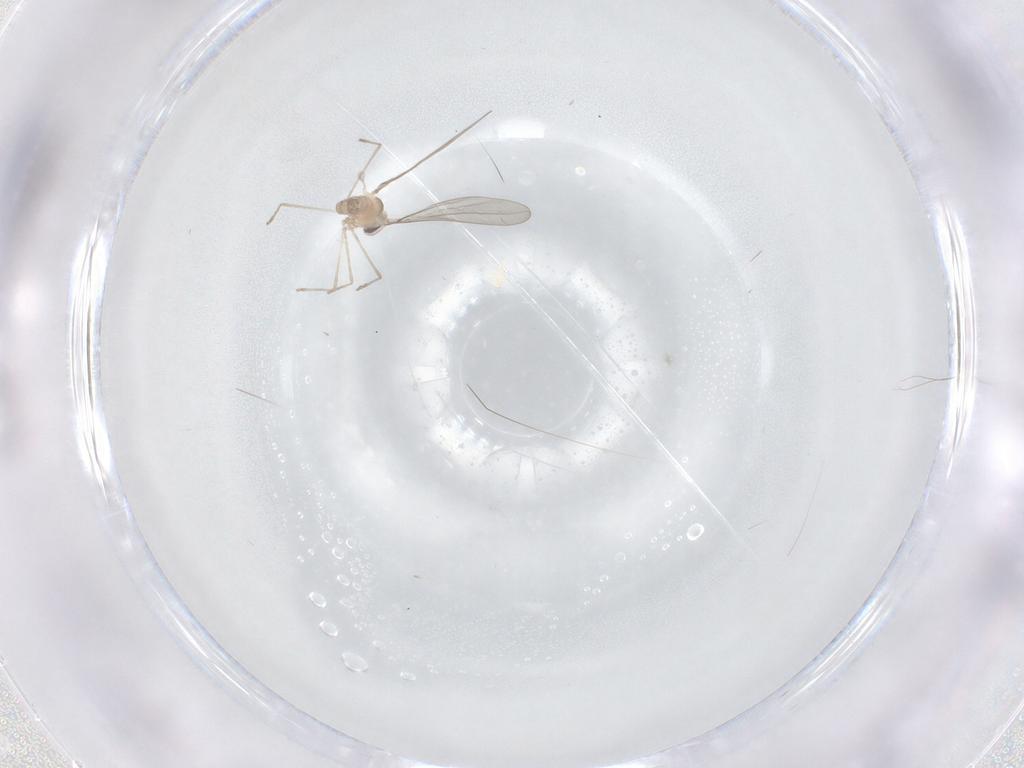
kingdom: Animalia
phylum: Arthropoda
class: Insecta
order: Diptera
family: Cecidomyiidae
